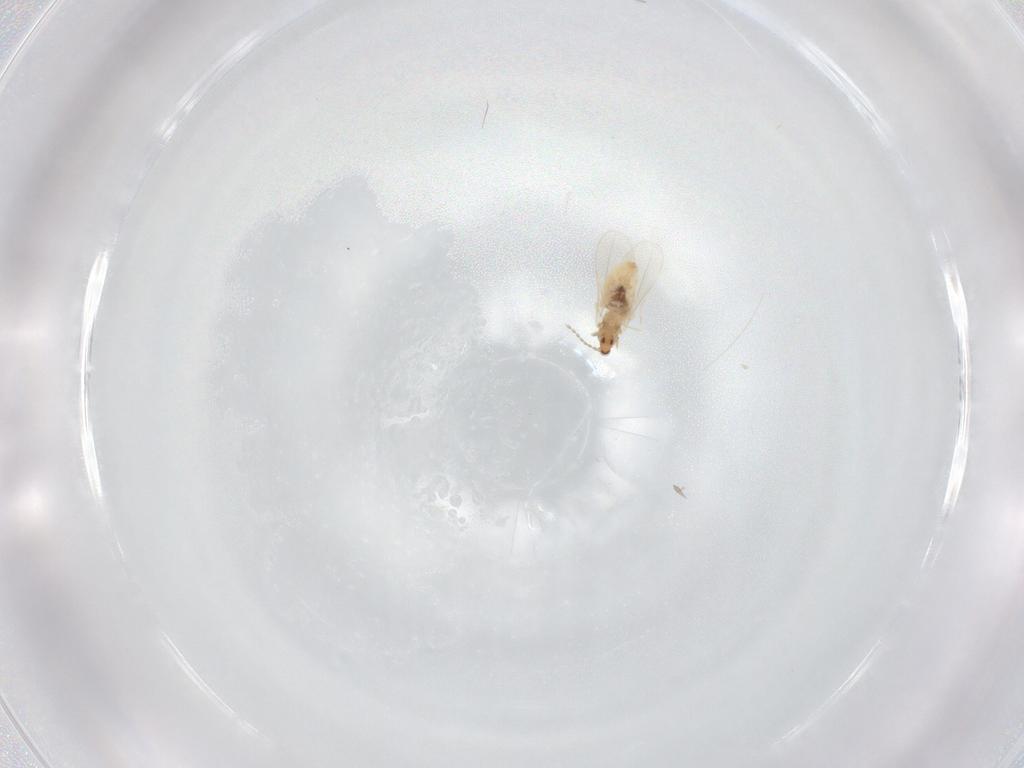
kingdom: Animalia
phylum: Arthropoda
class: Insecta
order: Diptera
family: Cecidomyiidae
